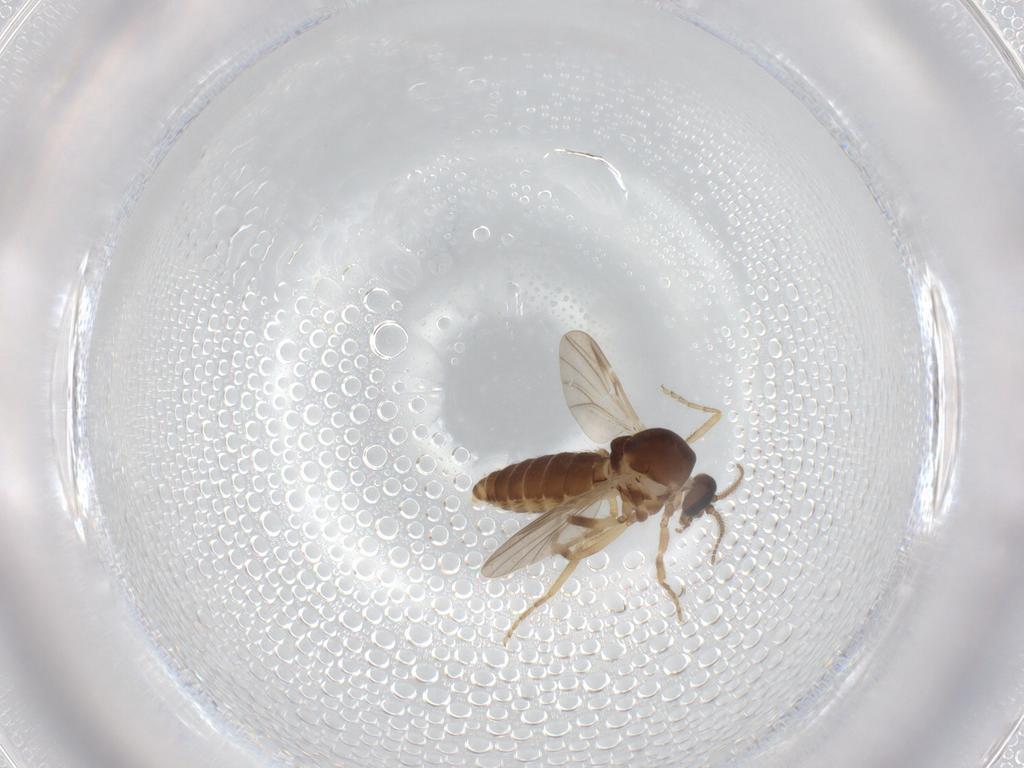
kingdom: Animalia
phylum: Arthropoda
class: Insecta
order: Diptera
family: Ceratopogonidae
